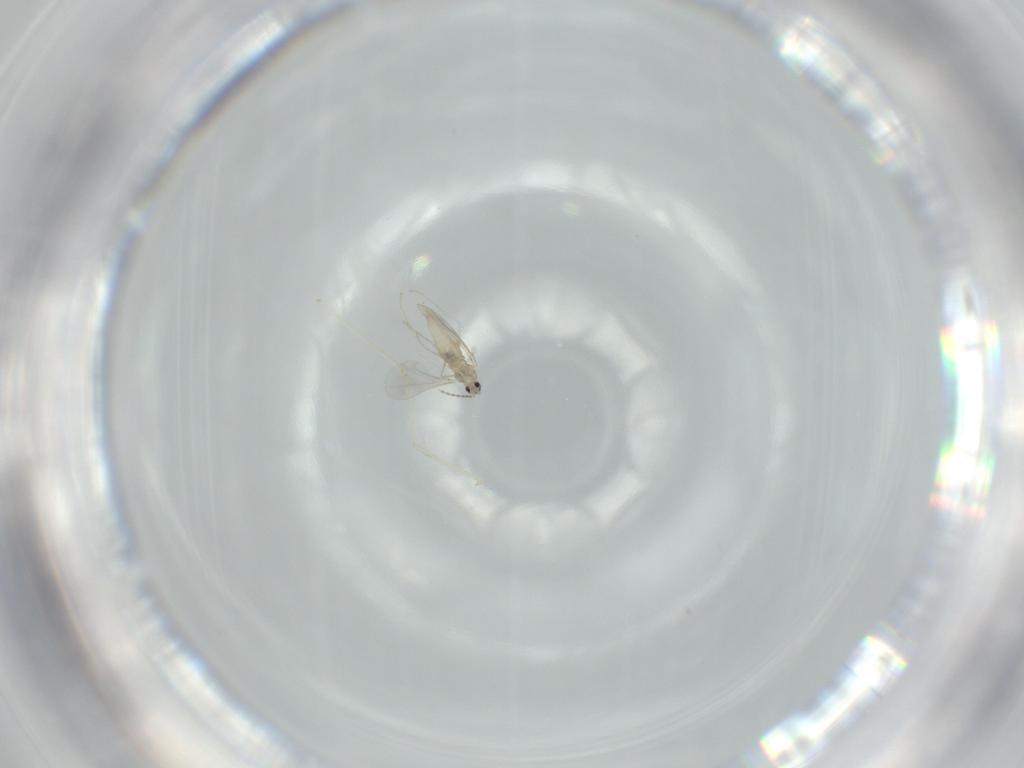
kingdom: Animalia
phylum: Arthropoda
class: Insecta
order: Diptera
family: Cecidomyiidae
